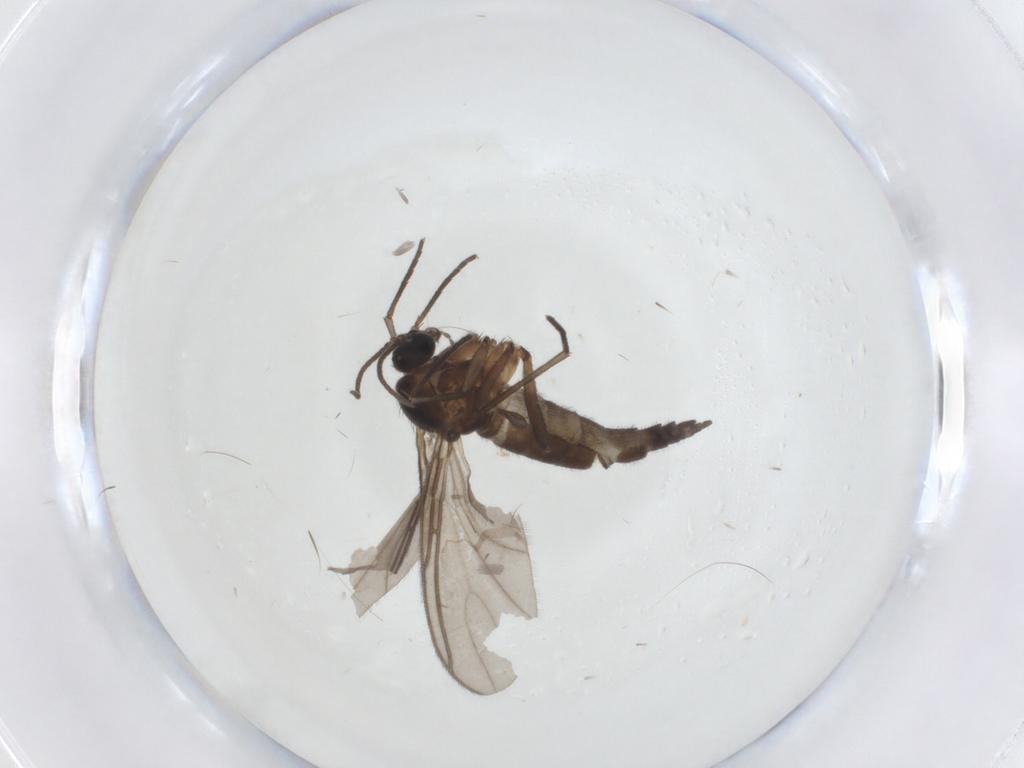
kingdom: Animalia
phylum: Arthropoda
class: Insecta
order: Diptera
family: Sciaridae
